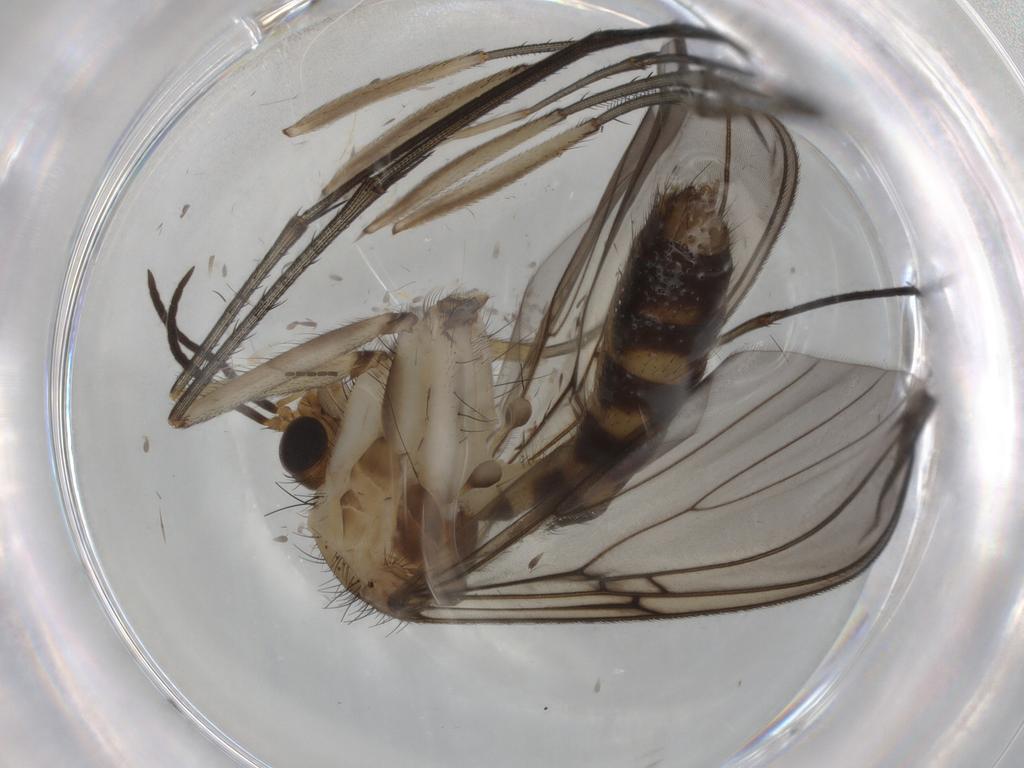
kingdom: Animalia
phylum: Arthropoda
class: Insecta
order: Diptera
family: Mycetophilidae
